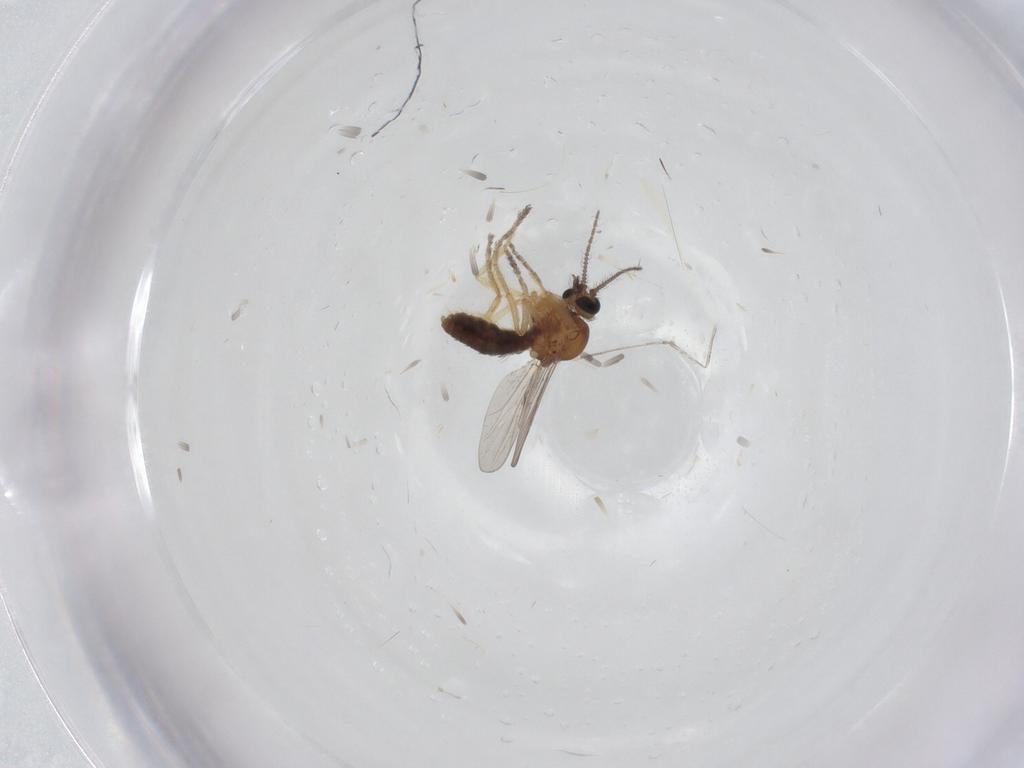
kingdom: Animalia
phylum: Arthropoda
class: Insecta
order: Diptera
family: Ceratopogonidae
